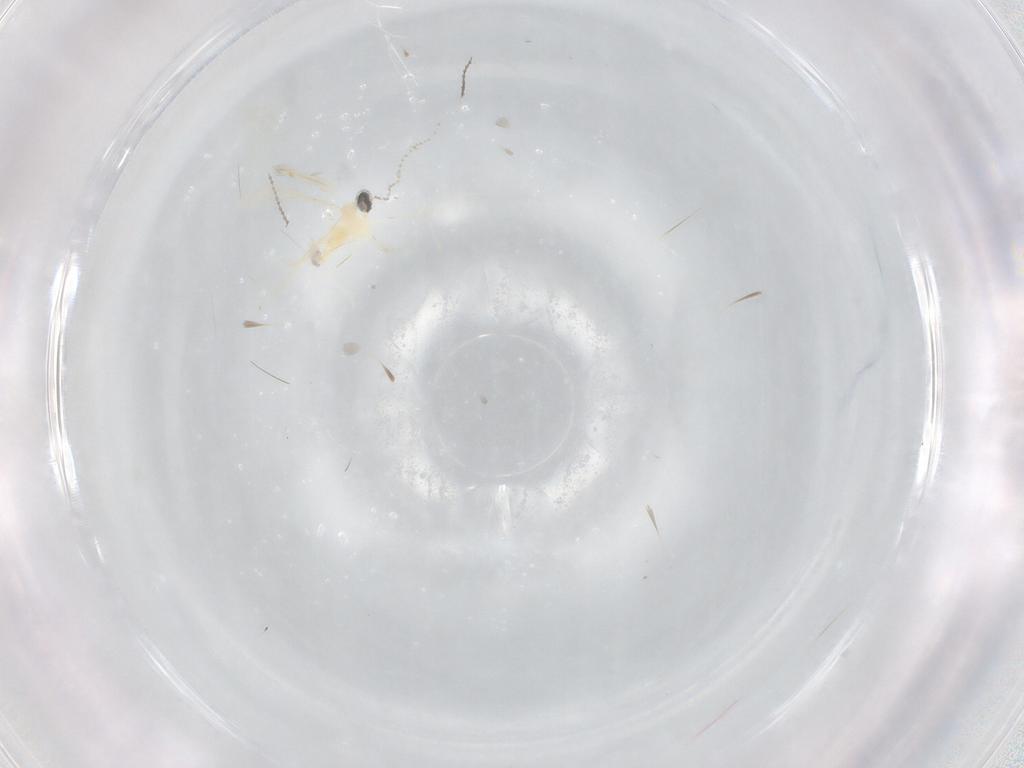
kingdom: Animalia
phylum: Arthropoda
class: Insecta
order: Diptera
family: Cecidomyiidae
